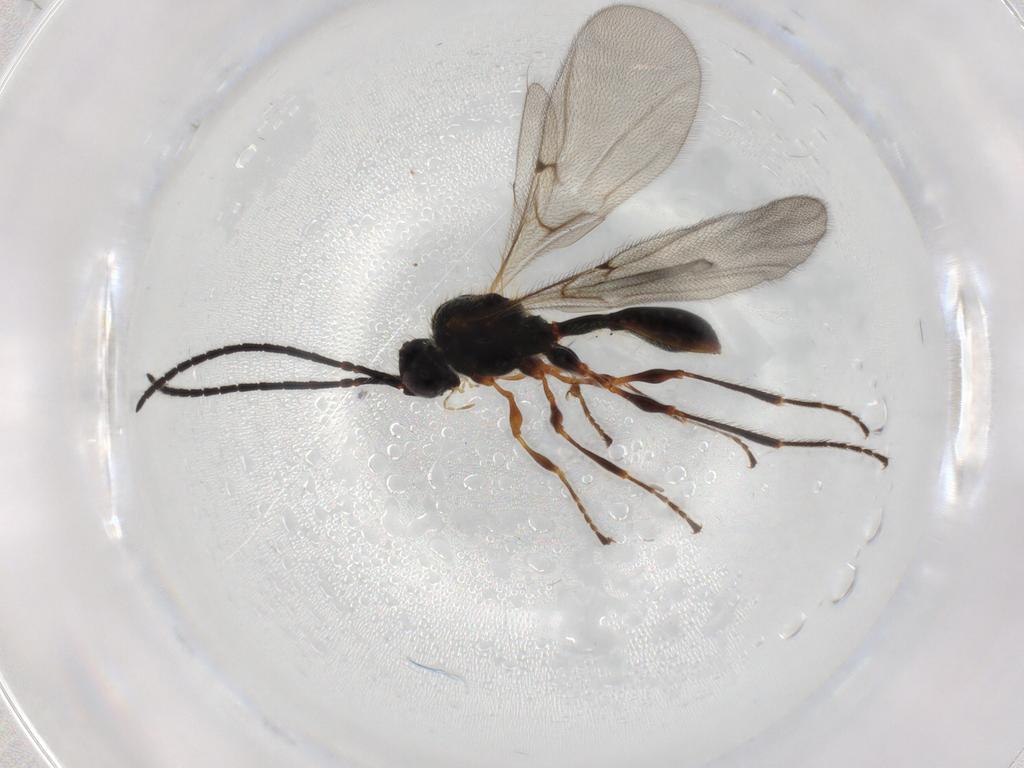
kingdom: Animalia
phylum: Arthropoda
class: Insecta
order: Hymenoptera
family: Diapriidae
